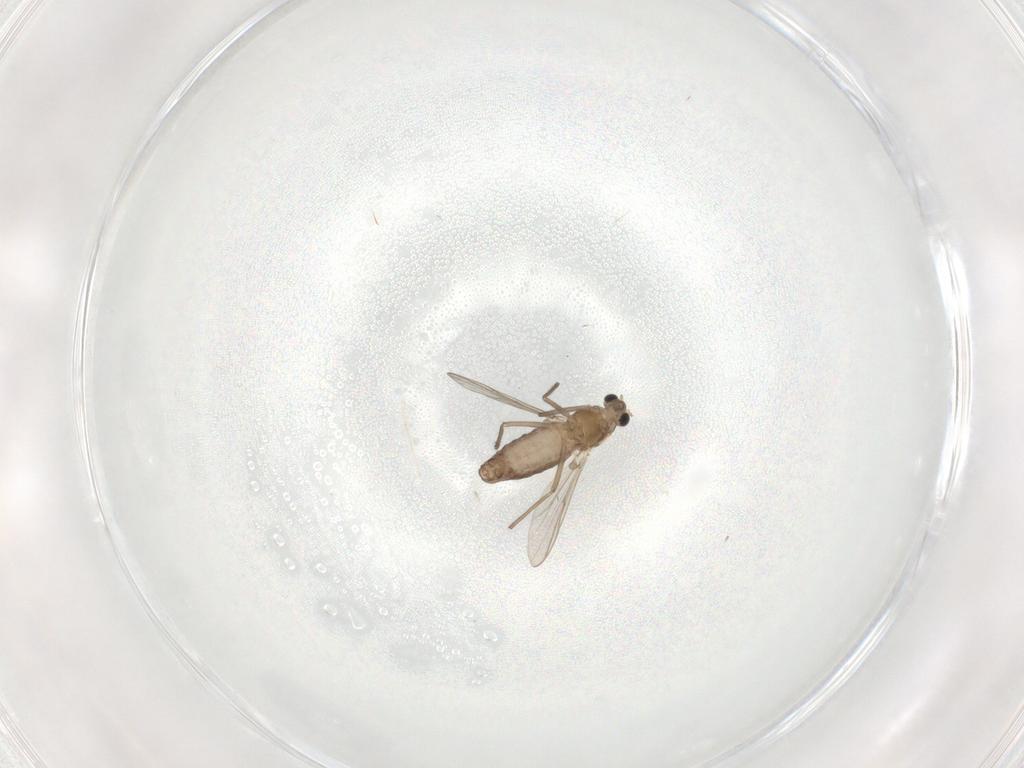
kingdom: Animalia
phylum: Arthropoda
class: Insecta
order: Diptera
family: Chironomidae
